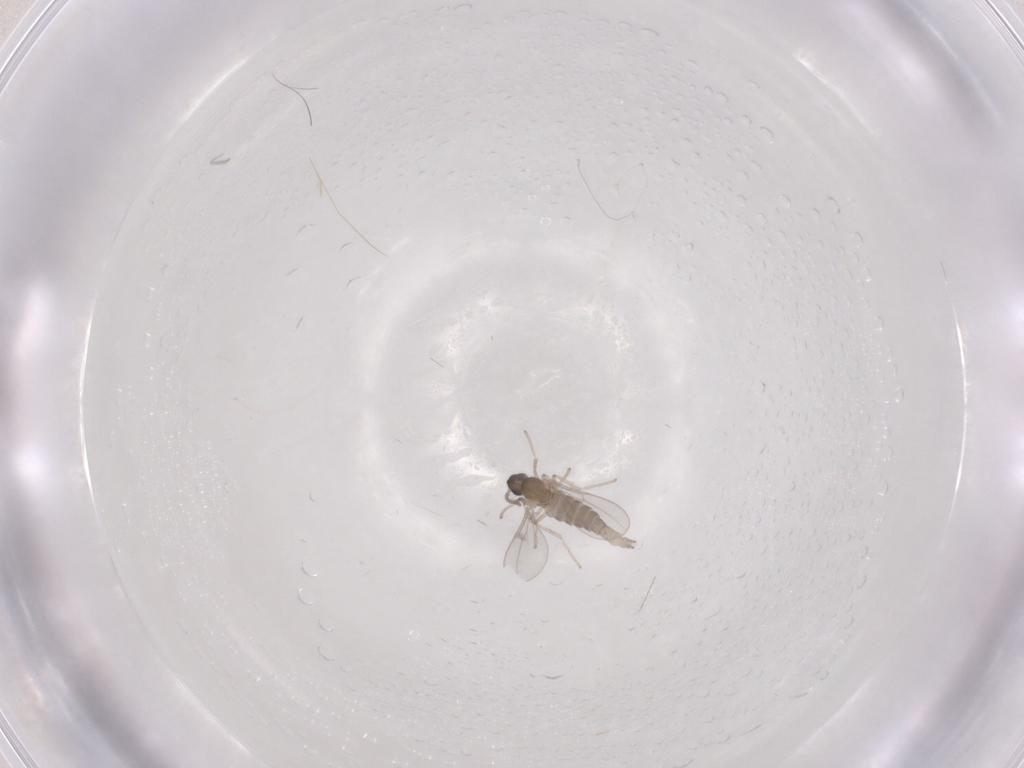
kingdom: Animalia
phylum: Arthropoda
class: Insecta
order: Diptera
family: Cecidomyiidae
